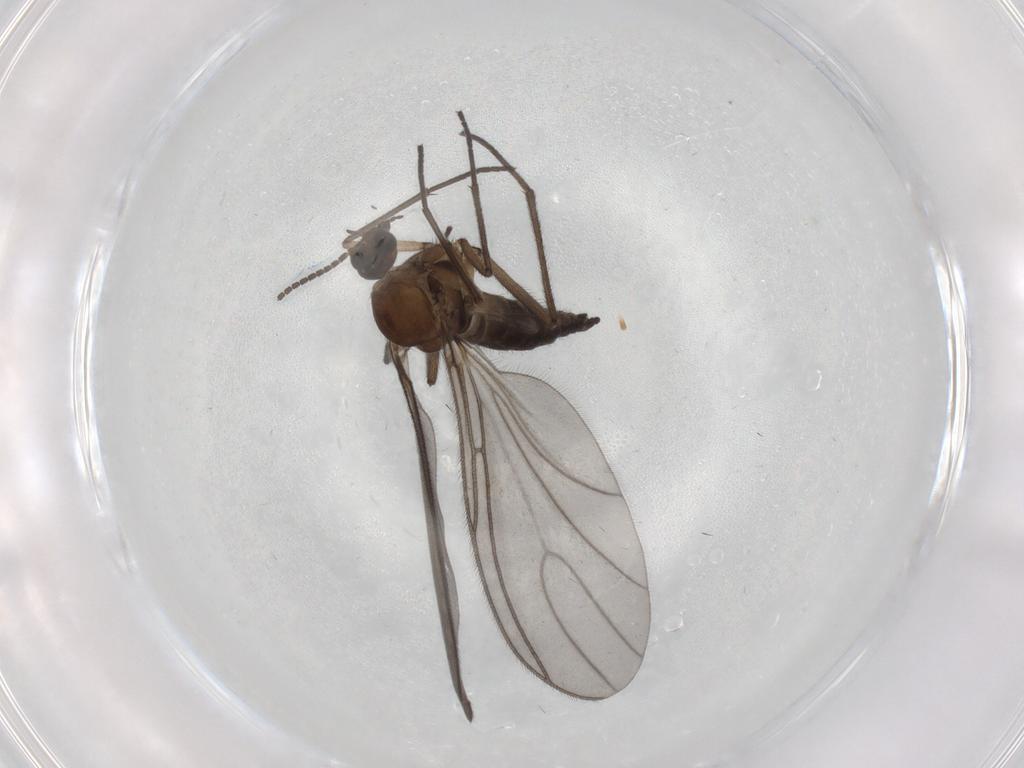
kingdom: Animalia
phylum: Arthropoda
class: Insecta
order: Diptera
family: Sciaridae
